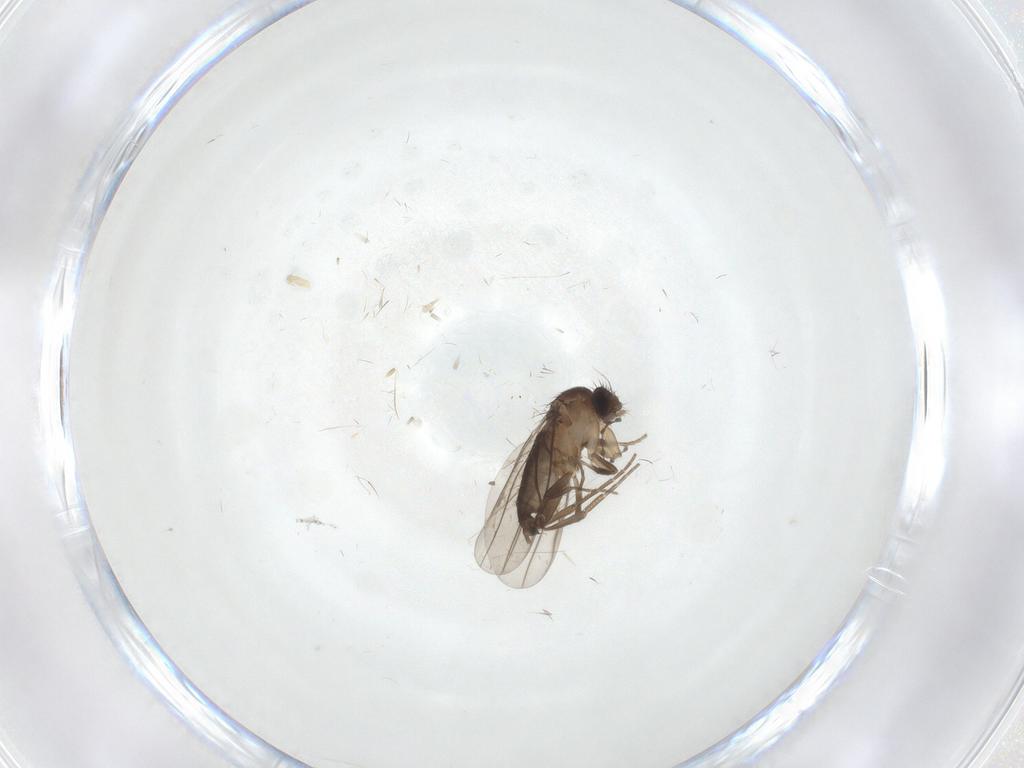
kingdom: Animalia
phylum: Arthropoda
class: Insecta
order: Diptera
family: Phoridae
